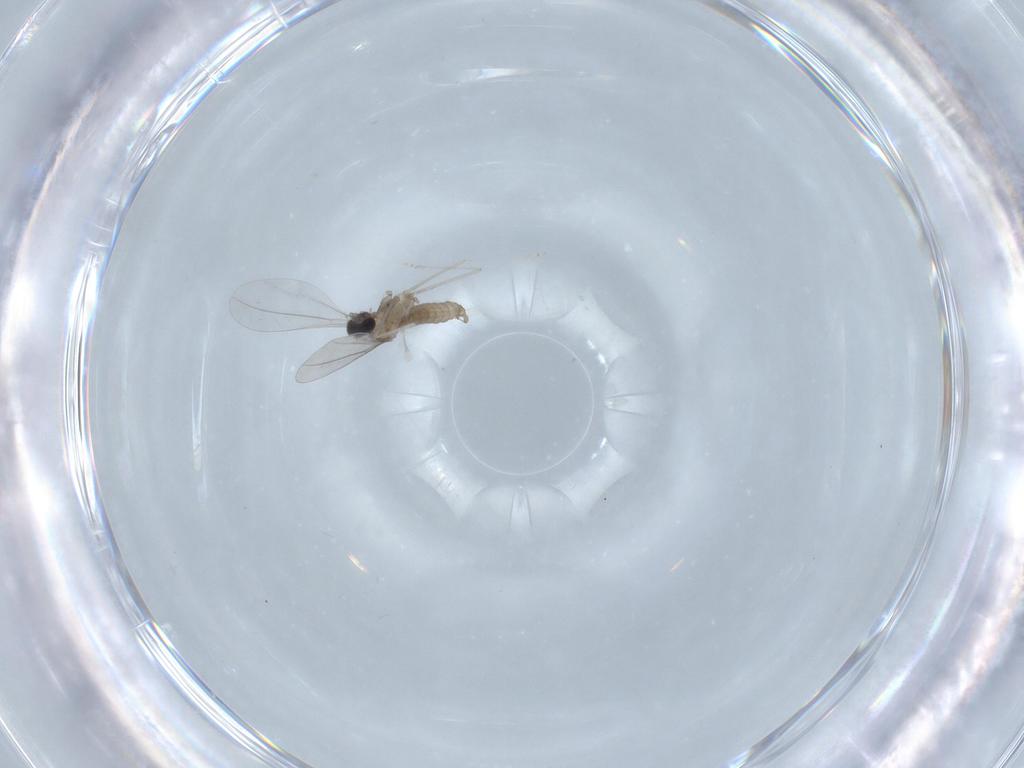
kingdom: Animalia
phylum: Arthropoda
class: Insecta
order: Diptera
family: Cecidomyiidae
